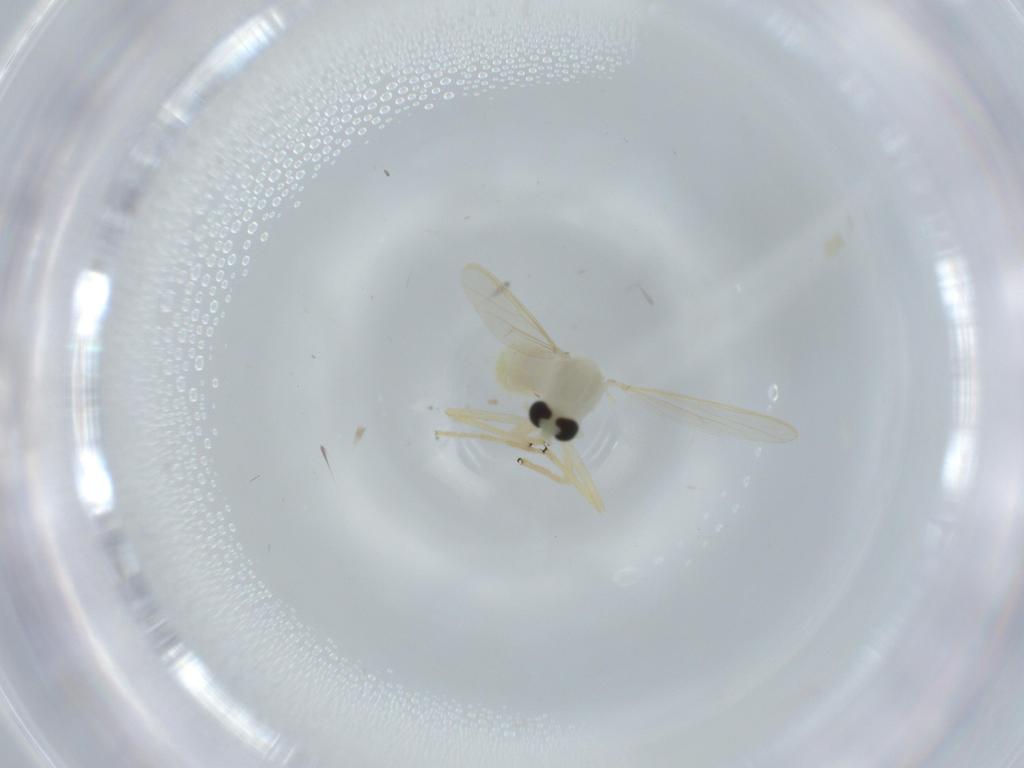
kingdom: Animalia
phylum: Arthropoda
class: Insecta
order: Diptera
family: Chironomidae
